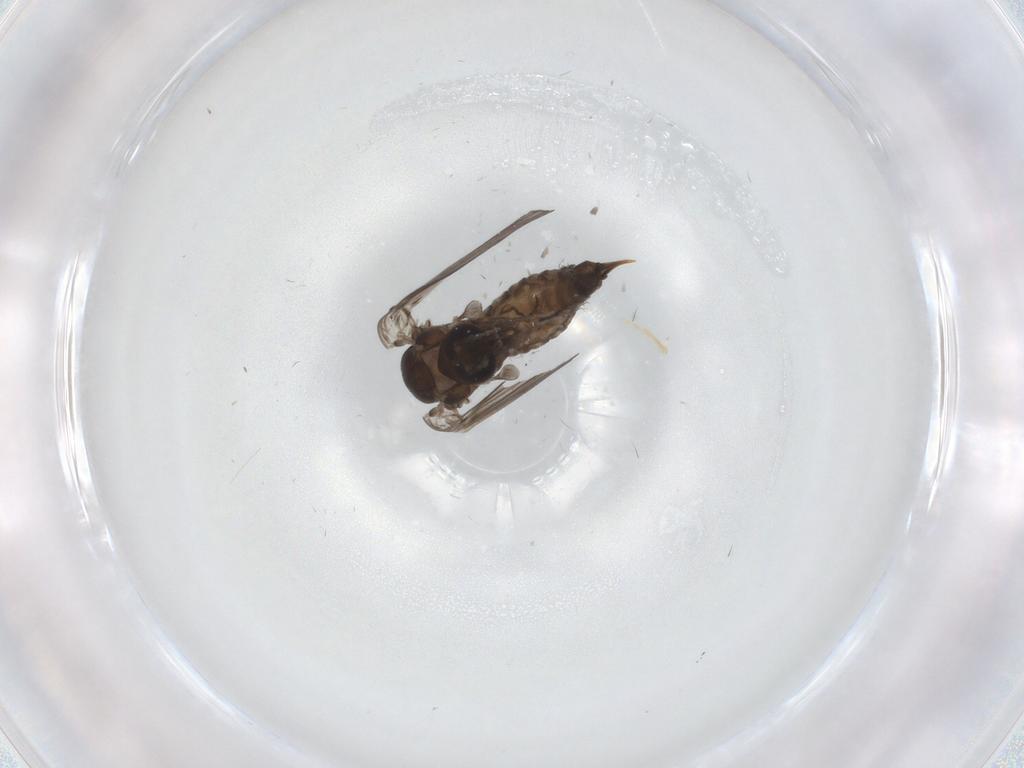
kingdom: Animalia
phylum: Arthropoda
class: Insecta
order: Diptera
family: Psychodidae
